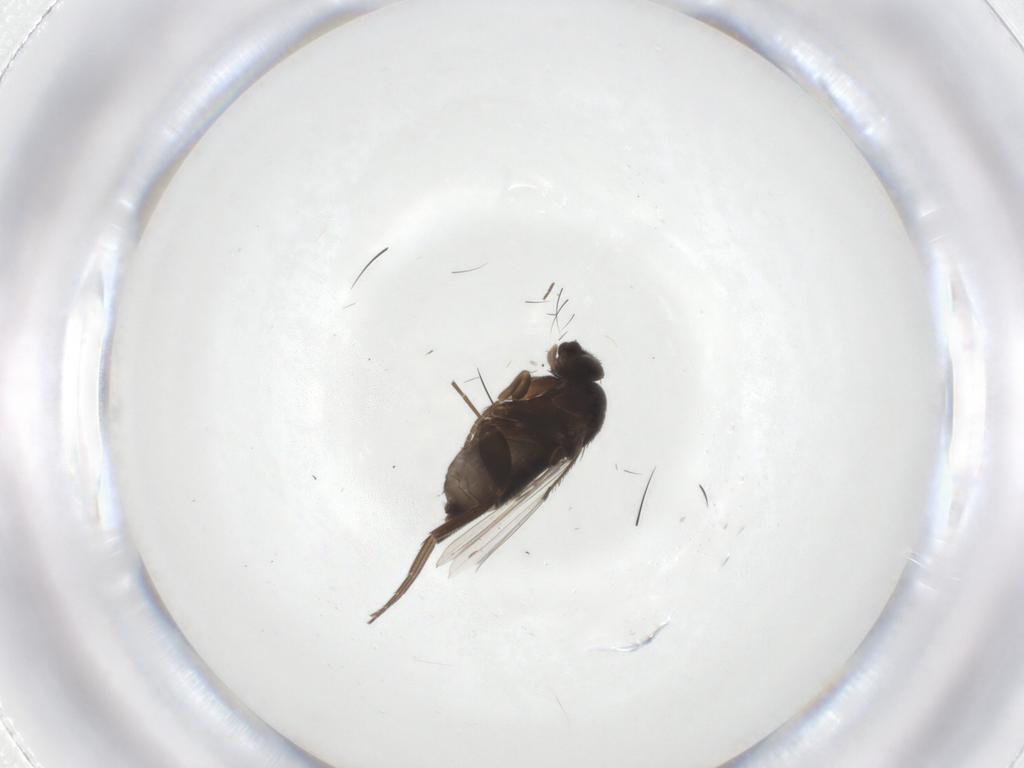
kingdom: Animalia
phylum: Arthropoda
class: Insecta
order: Diptera
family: Phoridae
